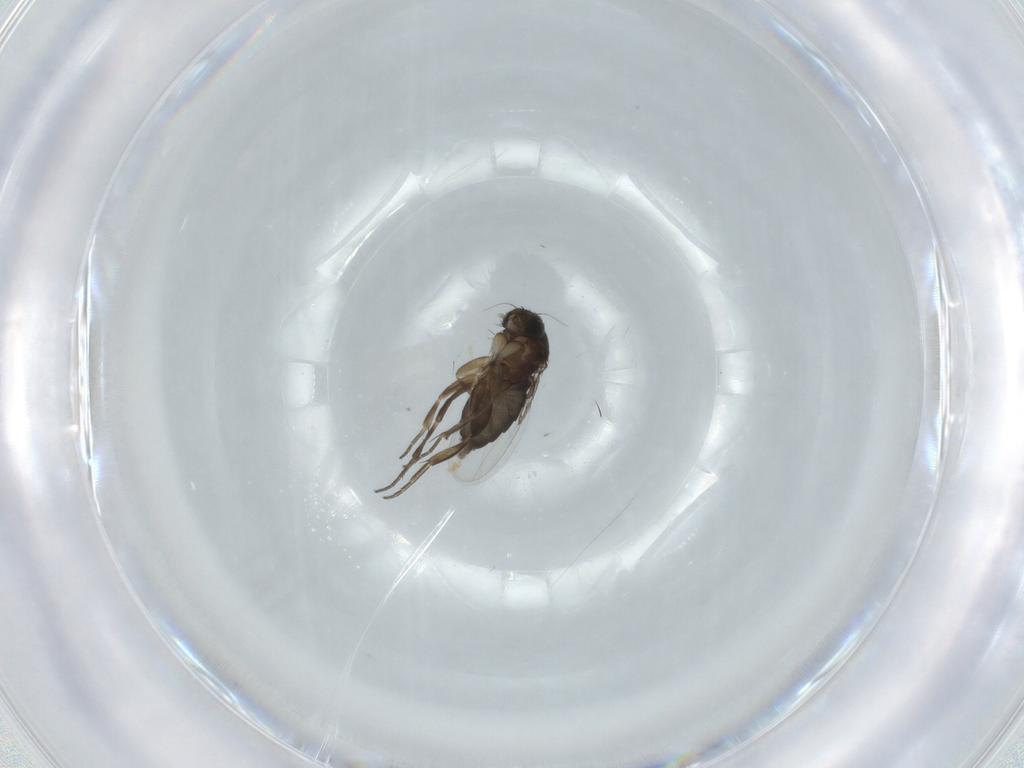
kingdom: Animalia
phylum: Arthropoda
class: Insecta
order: Diptera
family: Phoridae
